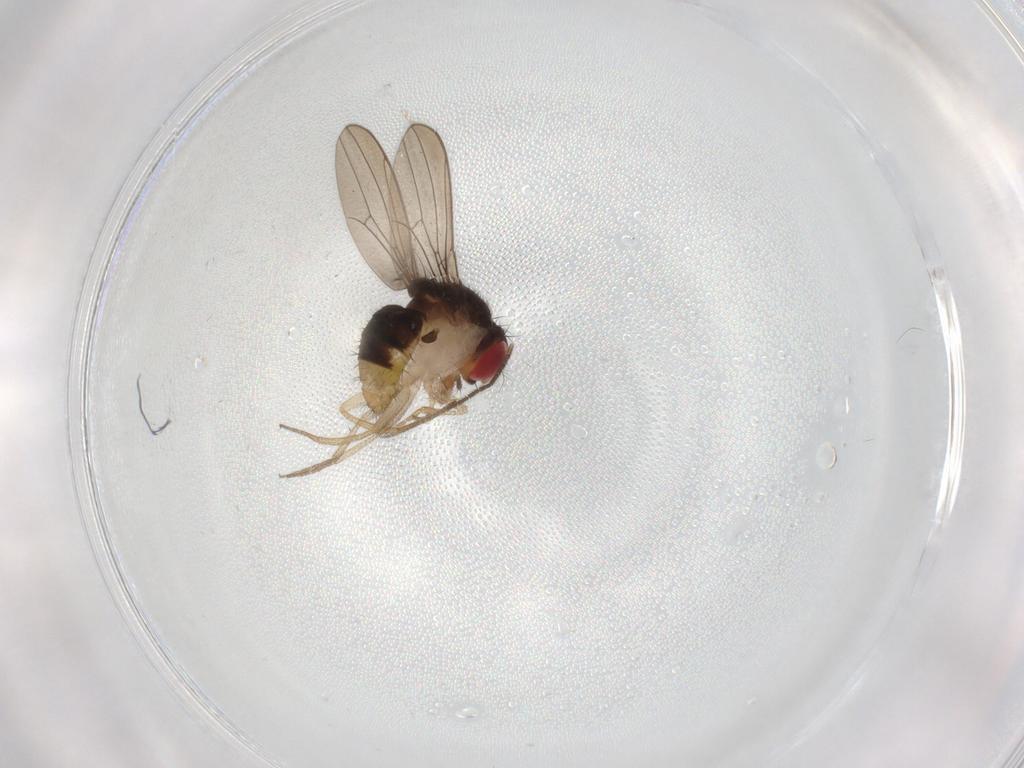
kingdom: Animalia
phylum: Arthropoda
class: Insecta
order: Diptera
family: Drosophilidae
